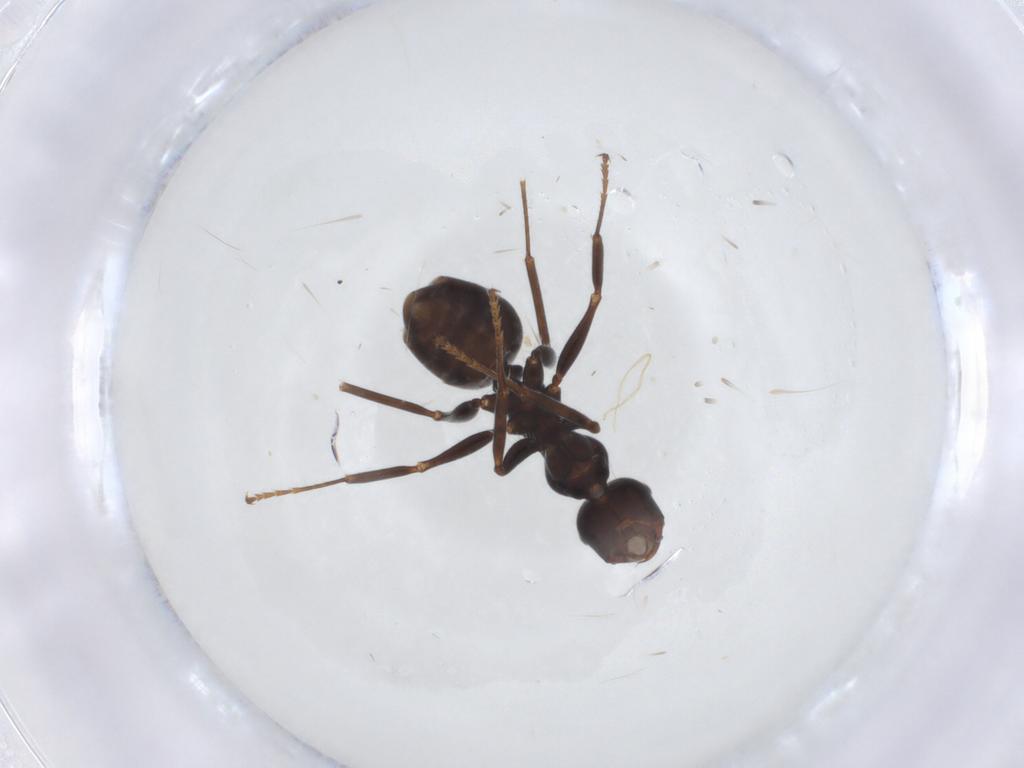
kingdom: Animalia
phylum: Arthropoda
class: Insecta
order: Hymenoptera
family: Formicidae
